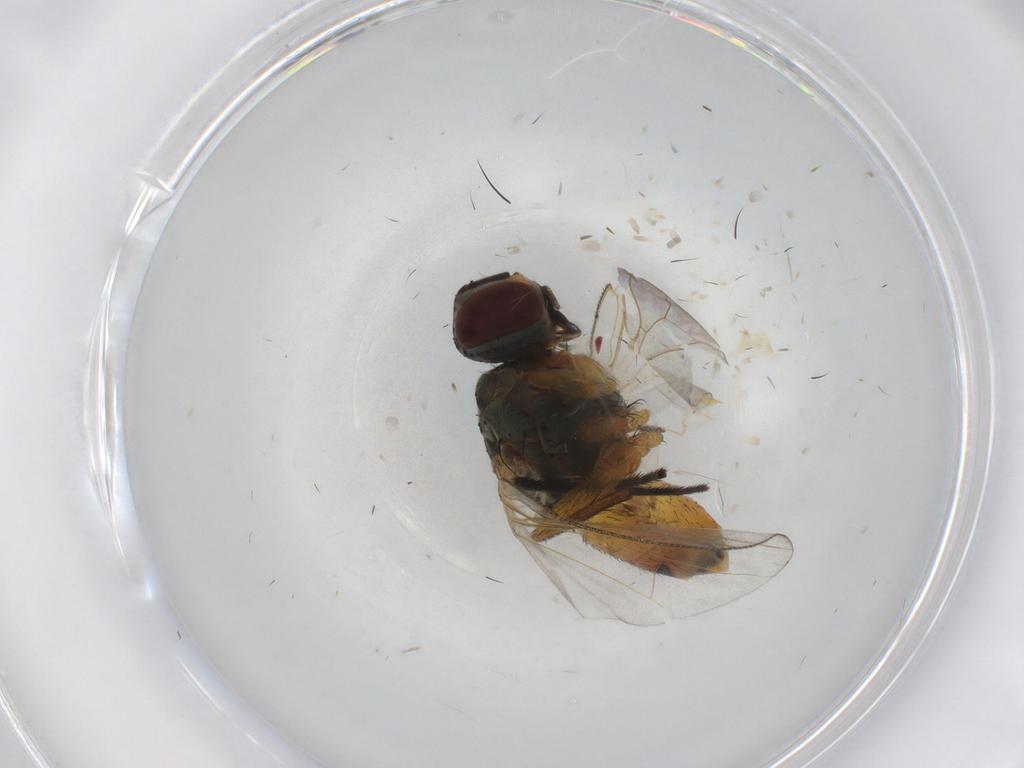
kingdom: Animalia
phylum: Arthropoda
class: Insecta
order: Diptera
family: Muscidae
